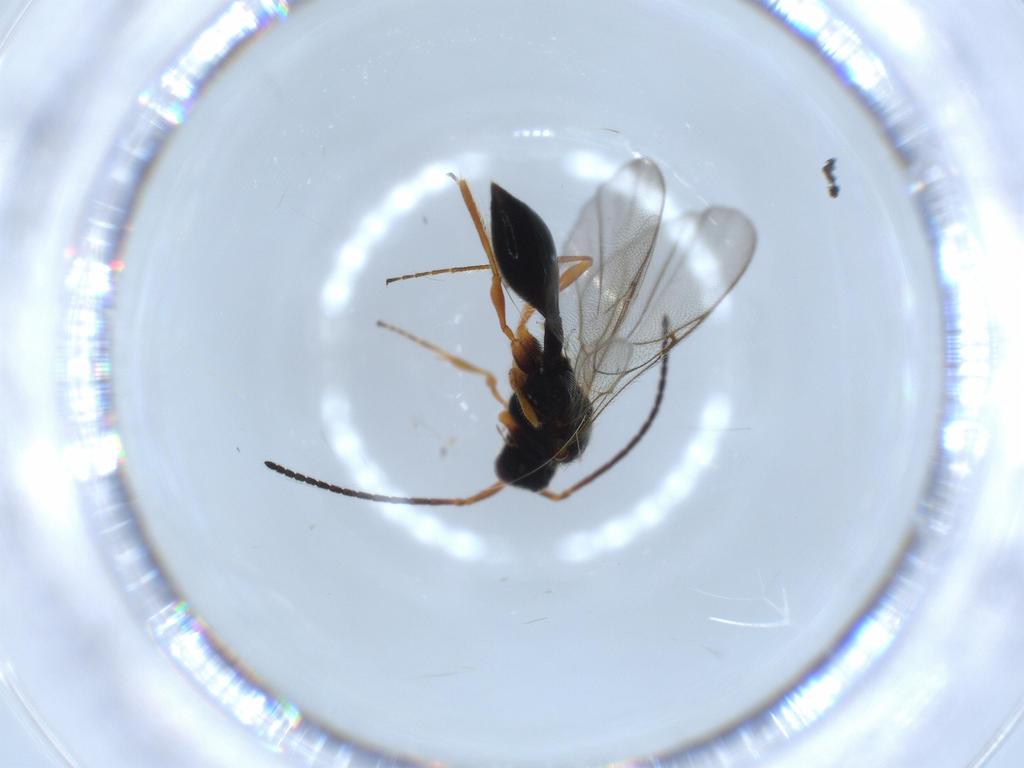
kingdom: Animalia
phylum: Arthropoda
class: Insecta
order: Hymenoptera
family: Diapriidae
